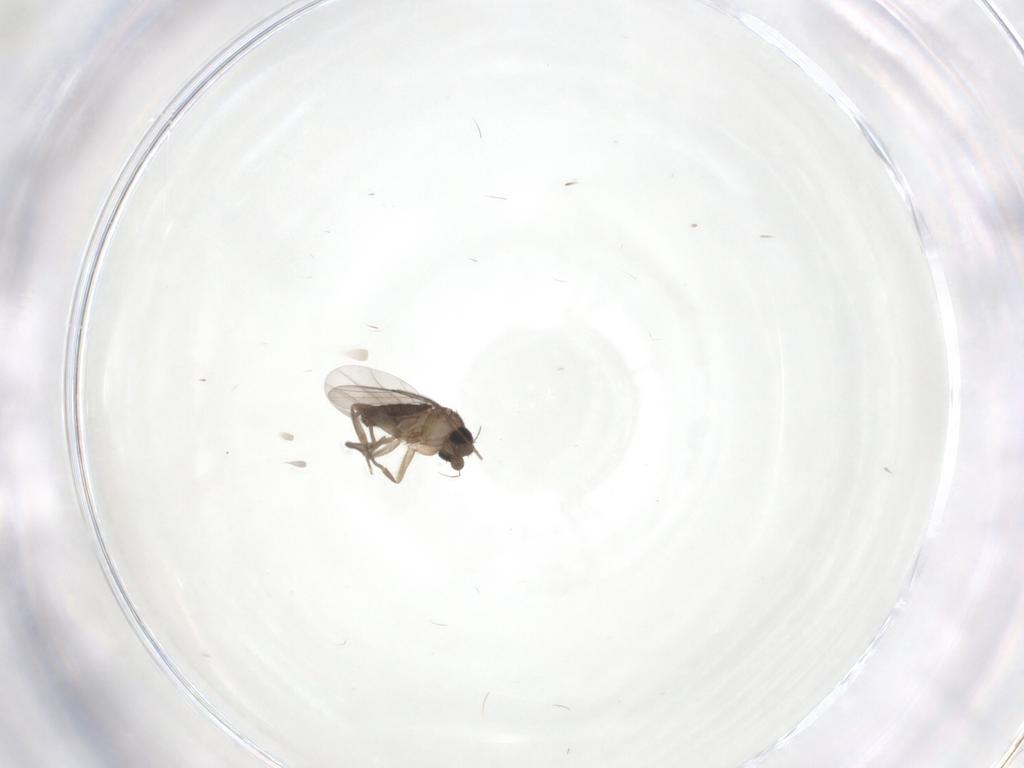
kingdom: Animalia
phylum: Arthropoda
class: Insecta
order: Diptera
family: Phoridae
